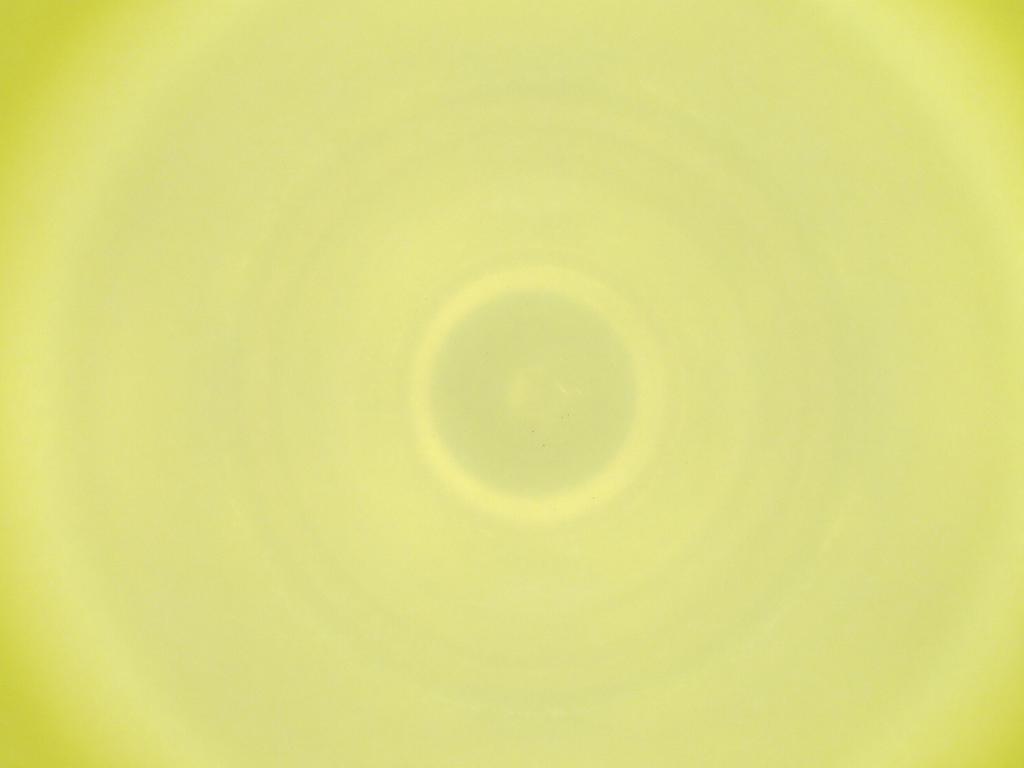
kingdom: Animalia
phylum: Arthropoda
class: Insecta
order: Diptera
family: Cecidomyiidae
